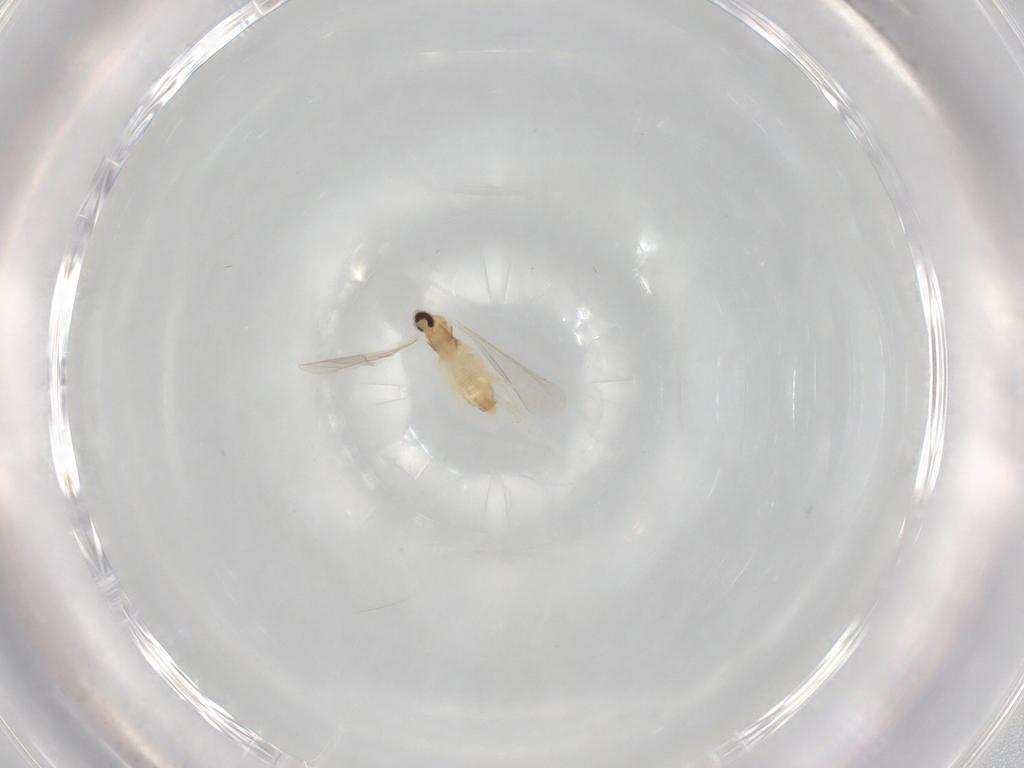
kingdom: Animalia
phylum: Arthropoda
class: Insecta
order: Diptera
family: Cecidomyiidae
